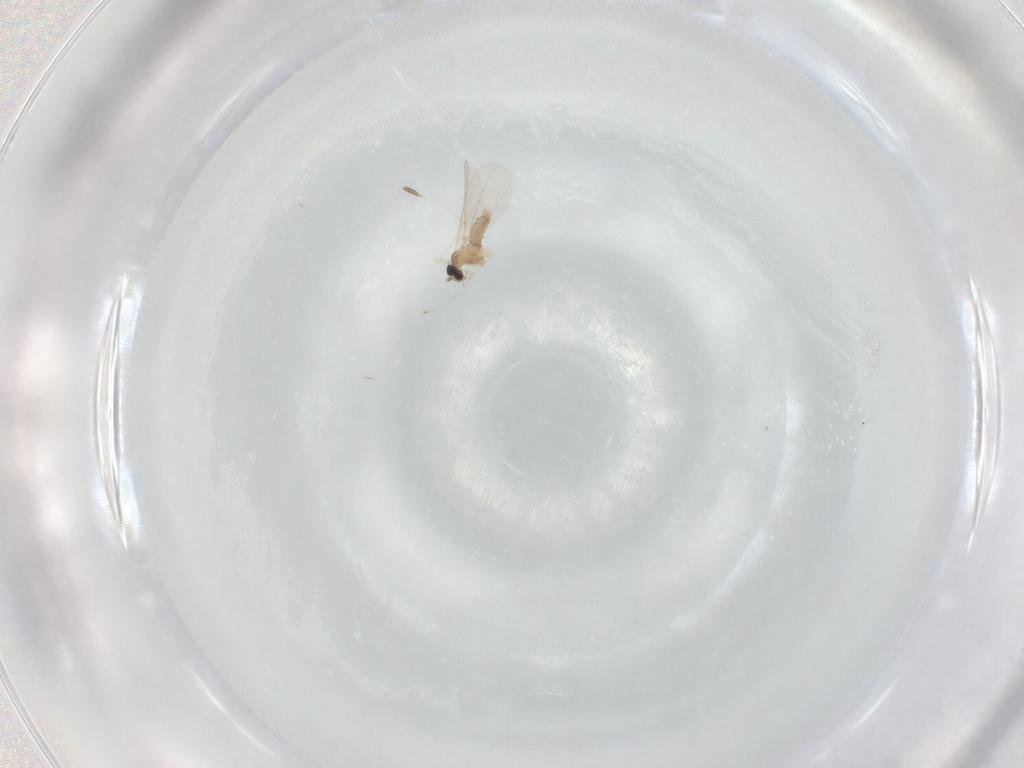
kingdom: Animalia
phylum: Arthropoda
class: Insecta
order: Diptera
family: Cecidomyiidae
